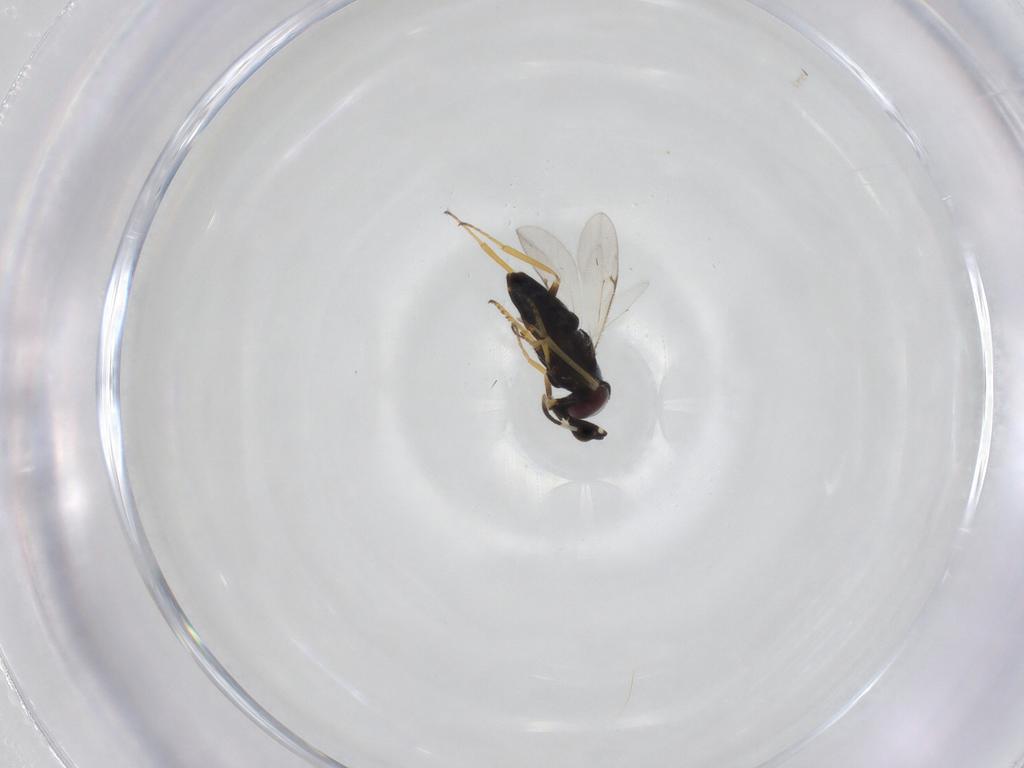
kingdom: Animalia
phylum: Arthropoda
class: Insecta
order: Hymenoptera
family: Encyrtidae
